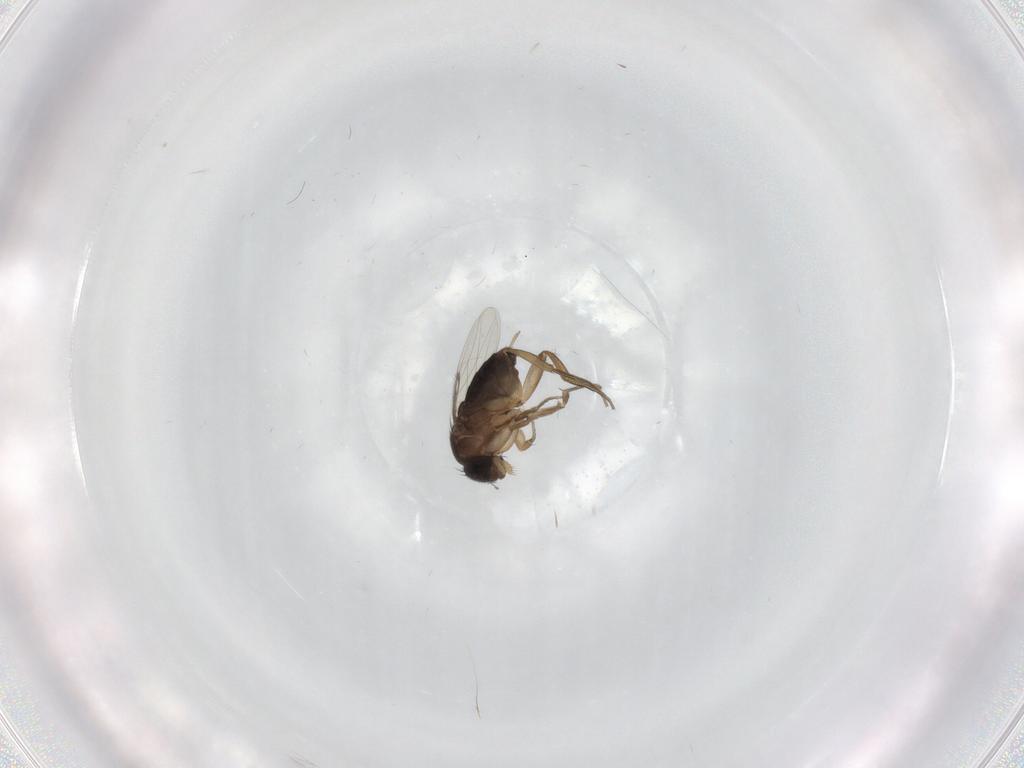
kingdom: Animalia
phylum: Arthropoda
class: Insecta
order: Diptera
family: Phoridae
